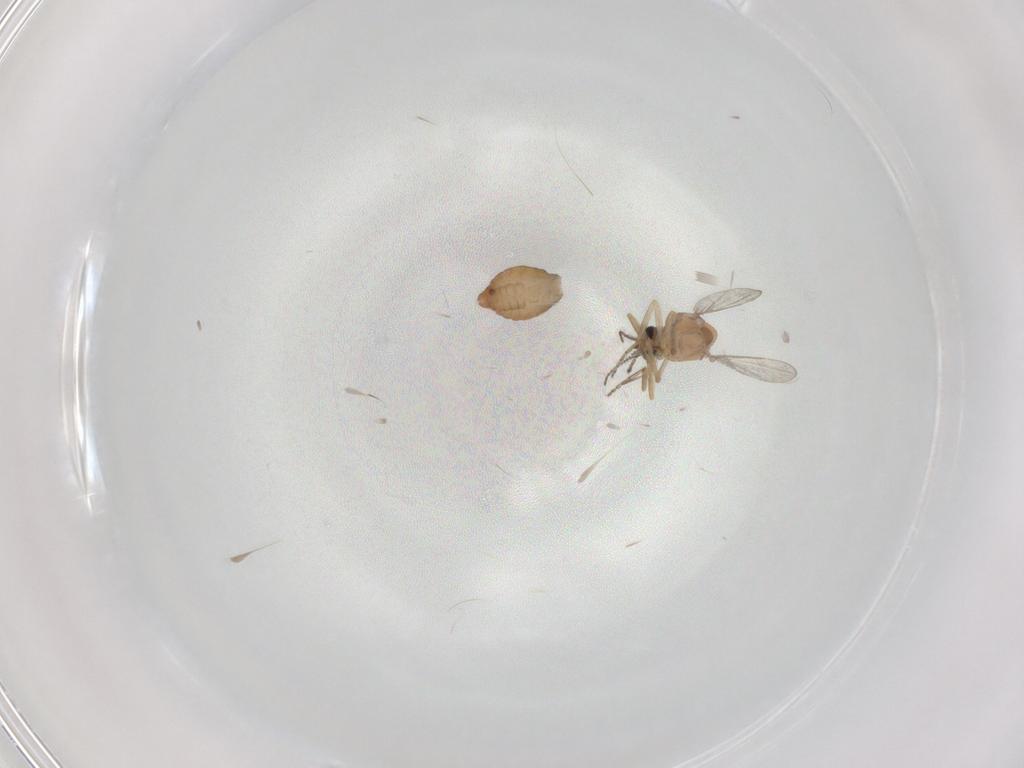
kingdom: Animalia
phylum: Arthropoda
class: Insecta
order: Diptera
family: Ceratopogonidae
